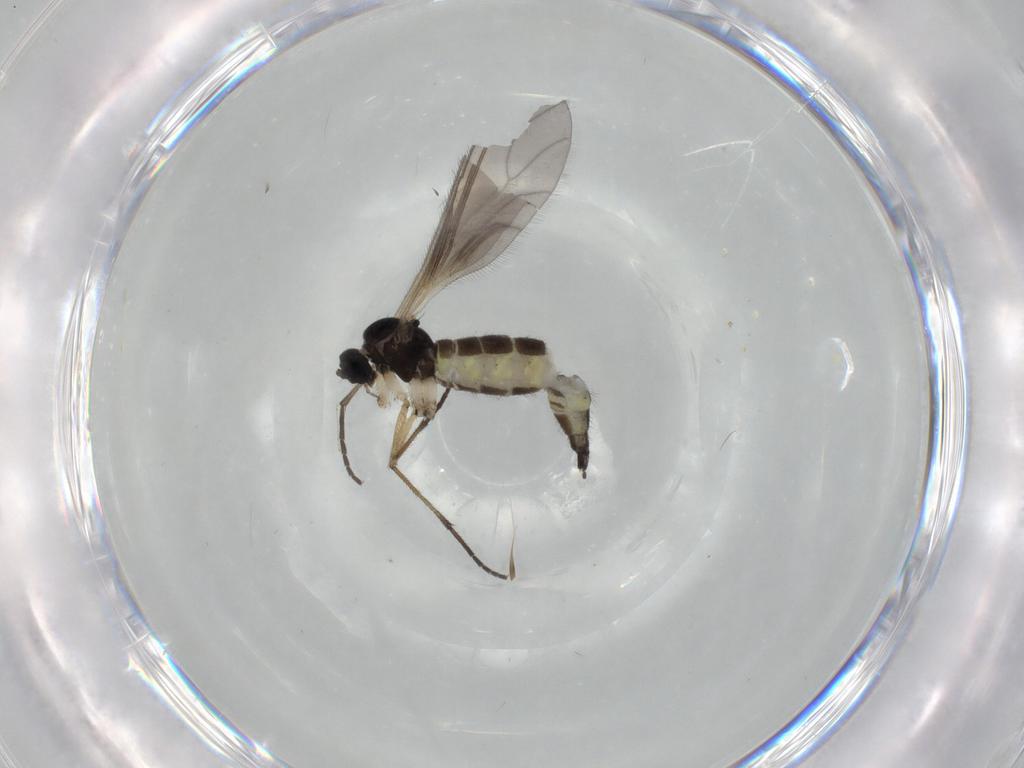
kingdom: Animalia
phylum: Arthropoda
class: Insecta
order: Diptera
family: Sciaridae
